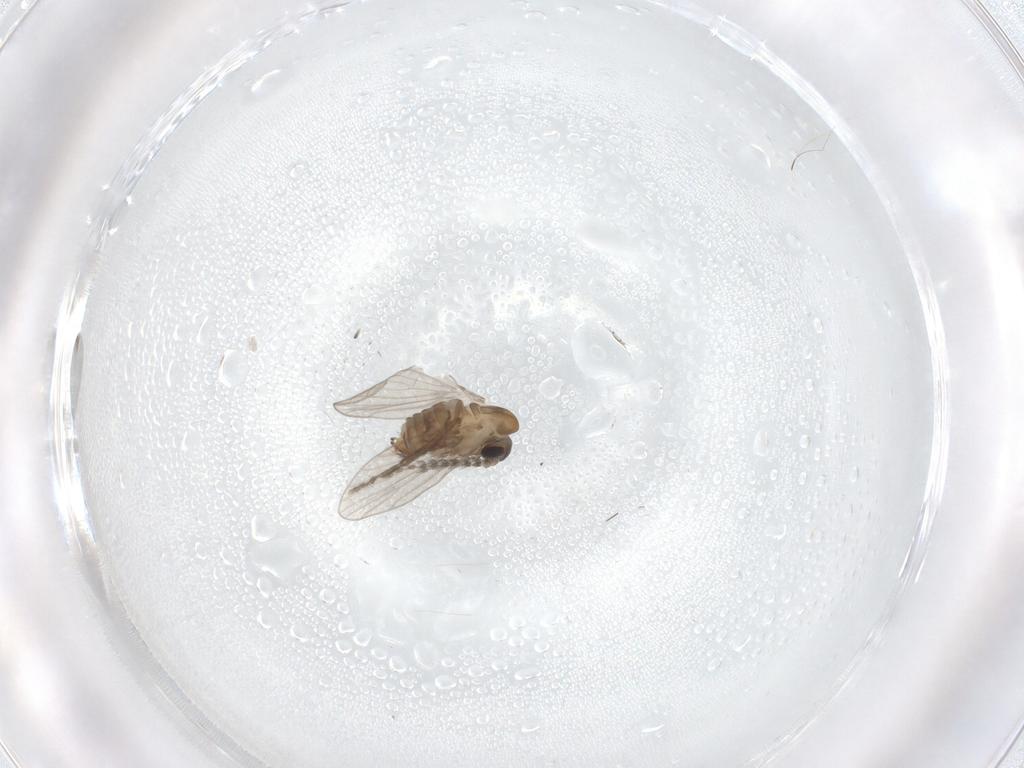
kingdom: Animalia
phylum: Arthropoda
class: Insecta
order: Diptera
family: Psychodidae
